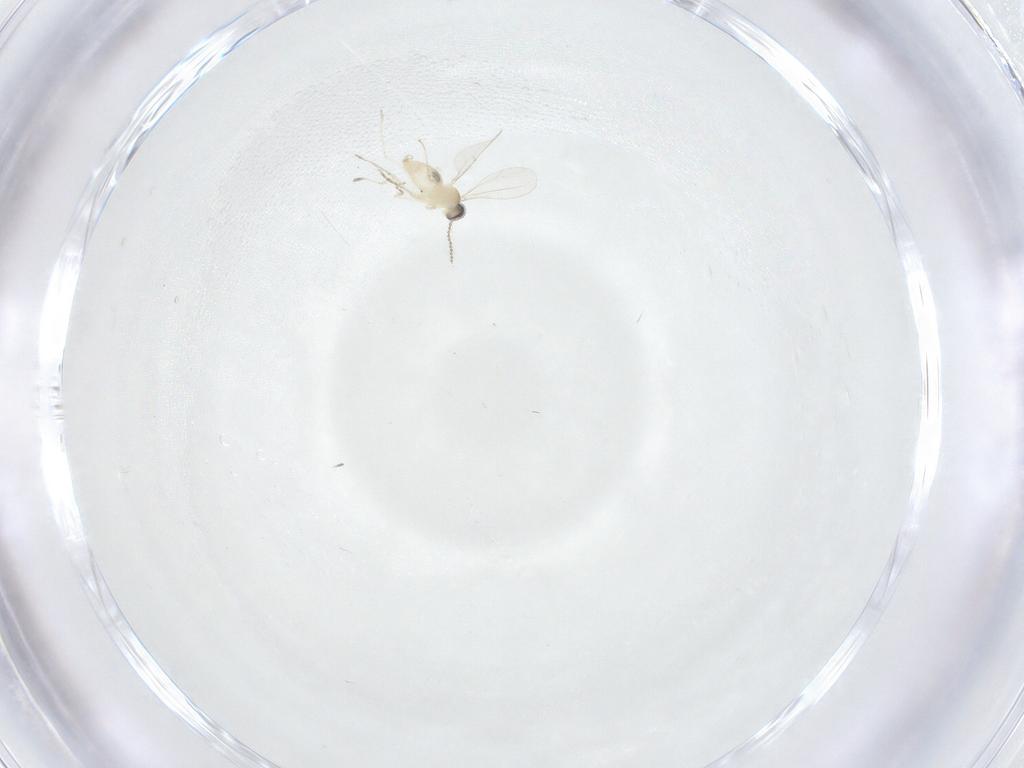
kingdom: Animalia
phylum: Arthropoda
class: Insecta
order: Diptera
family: Cecidomyiidae
